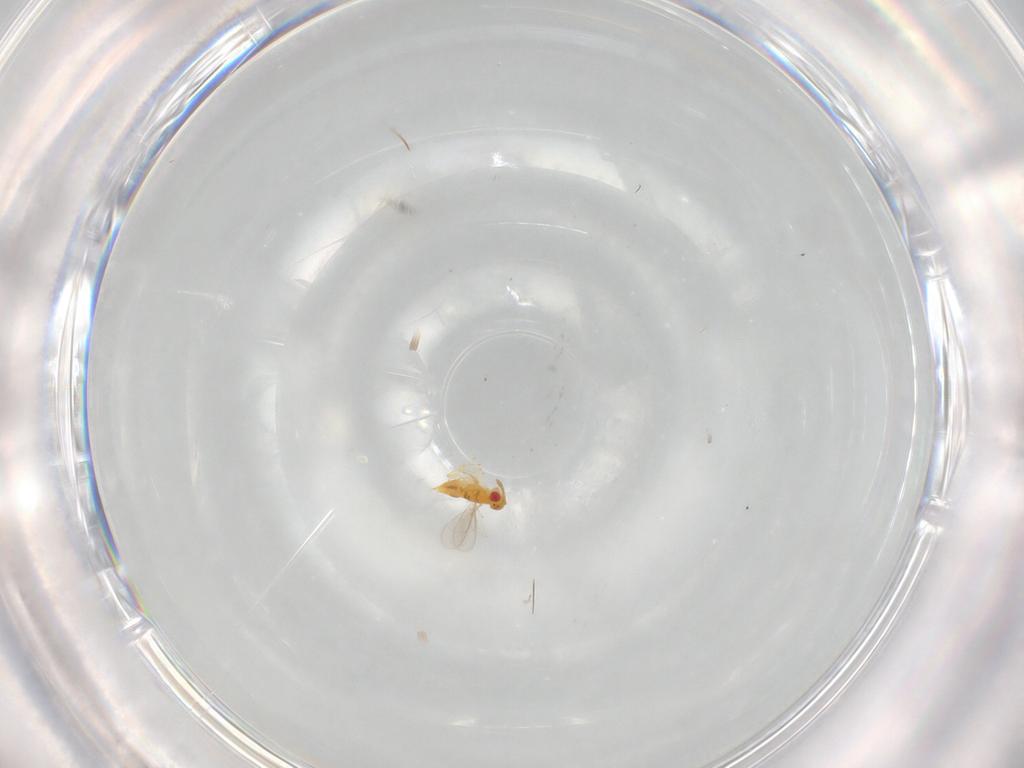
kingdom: Animalia
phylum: Arthropoda
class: Insecta
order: Hymenoptera
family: Aphelinidae
